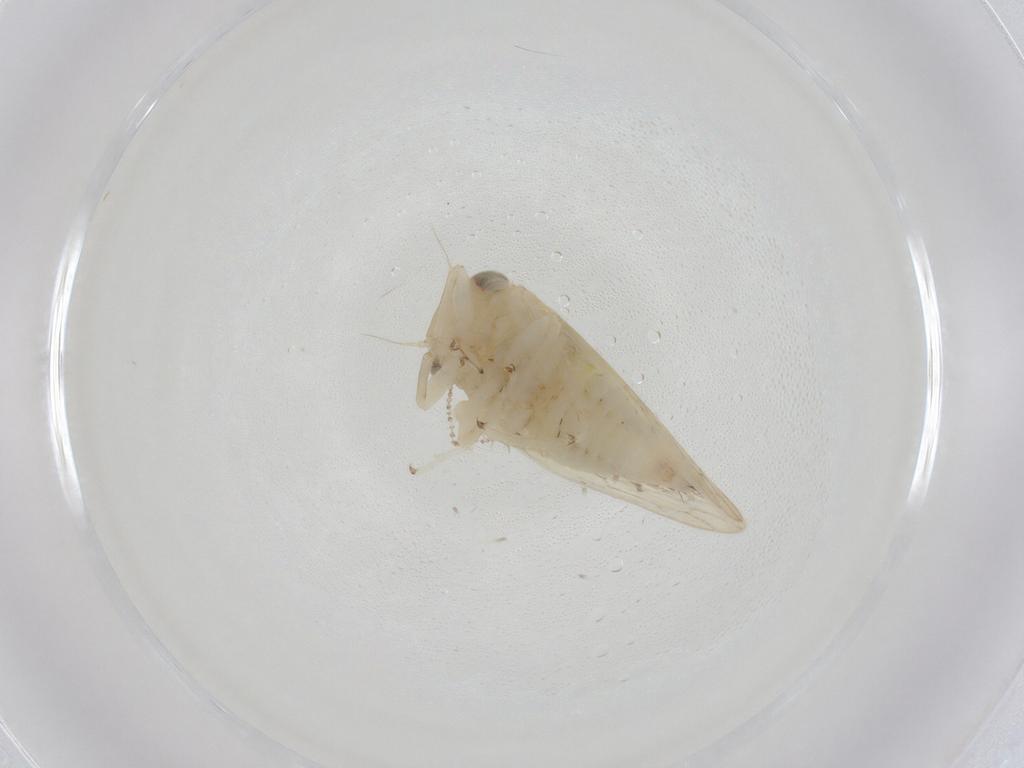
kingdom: Animalia
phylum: Arthropoda
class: Insecta
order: Hemiptera
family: Cicadellidae
